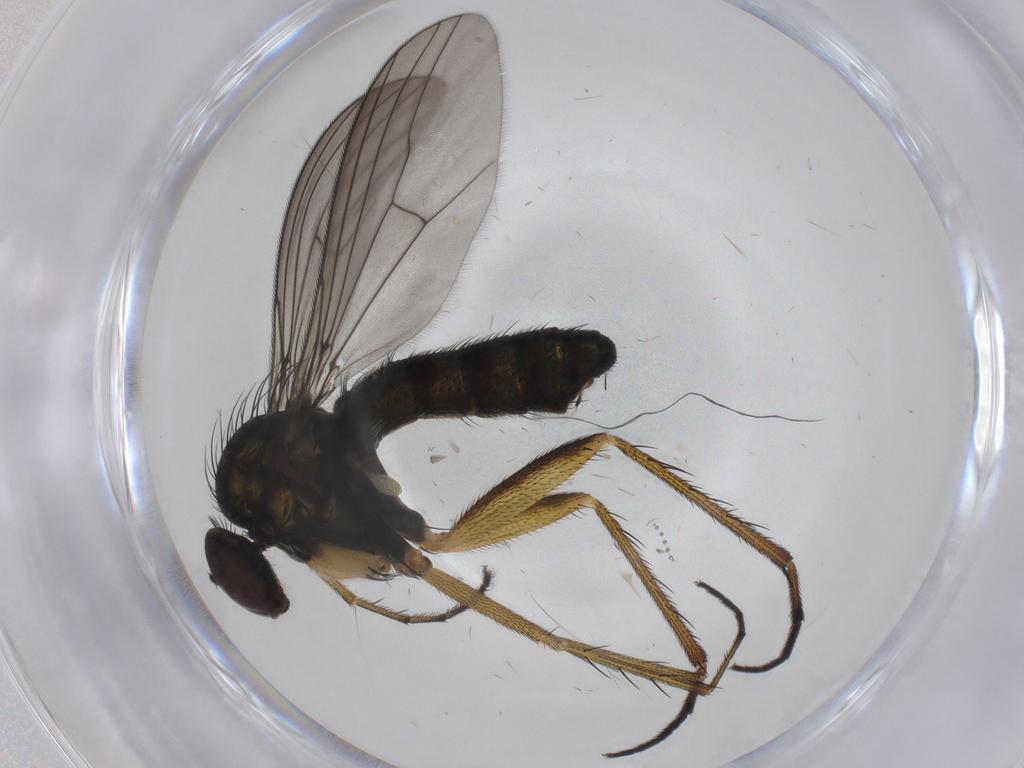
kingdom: Animalia
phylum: Arthropoda
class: Insecta
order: Diptera
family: Dolichopodidae
